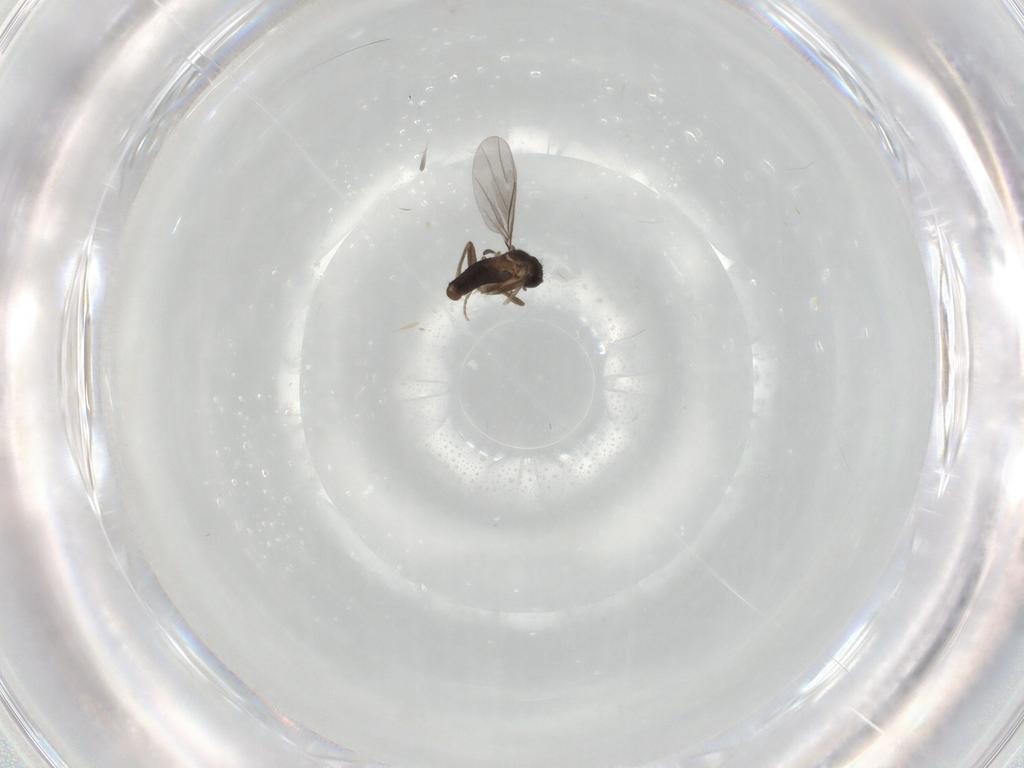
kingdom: Animalia
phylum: Arthropoda
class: Insecta
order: Diptera
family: Phoridae
